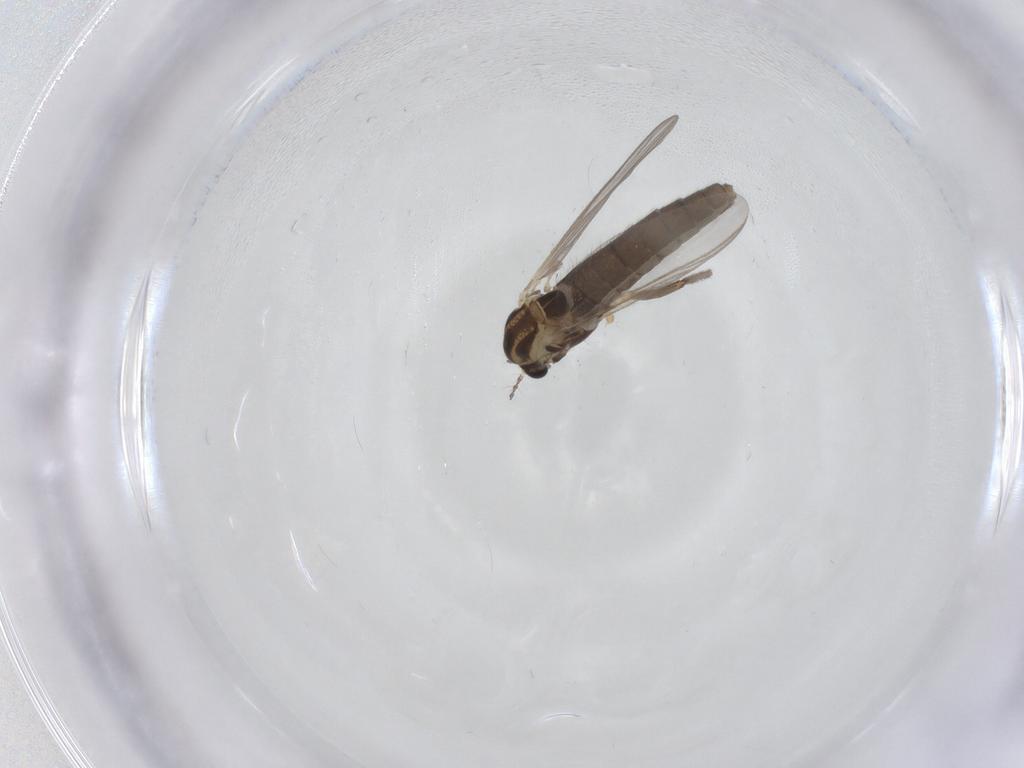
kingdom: Animalia
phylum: Arthropoda
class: Insecta
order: Diptera
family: Chironomidae
